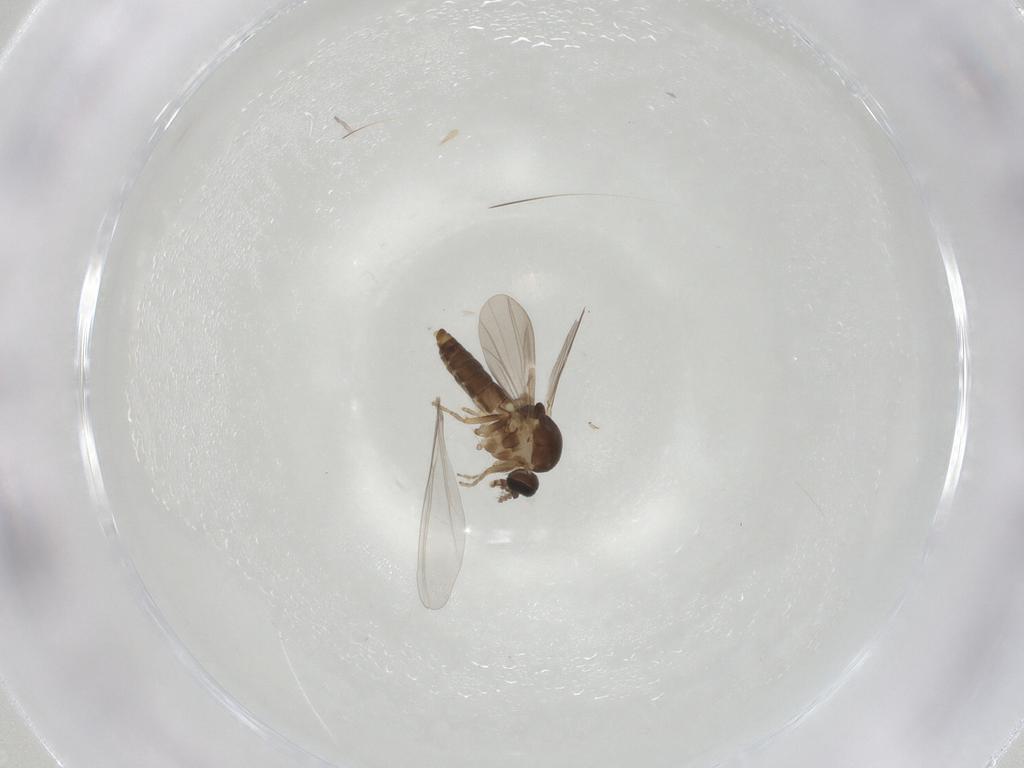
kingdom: Animalia
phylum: Arthropoda
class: Insecta
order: Diptera
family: Ceratopogonidae
